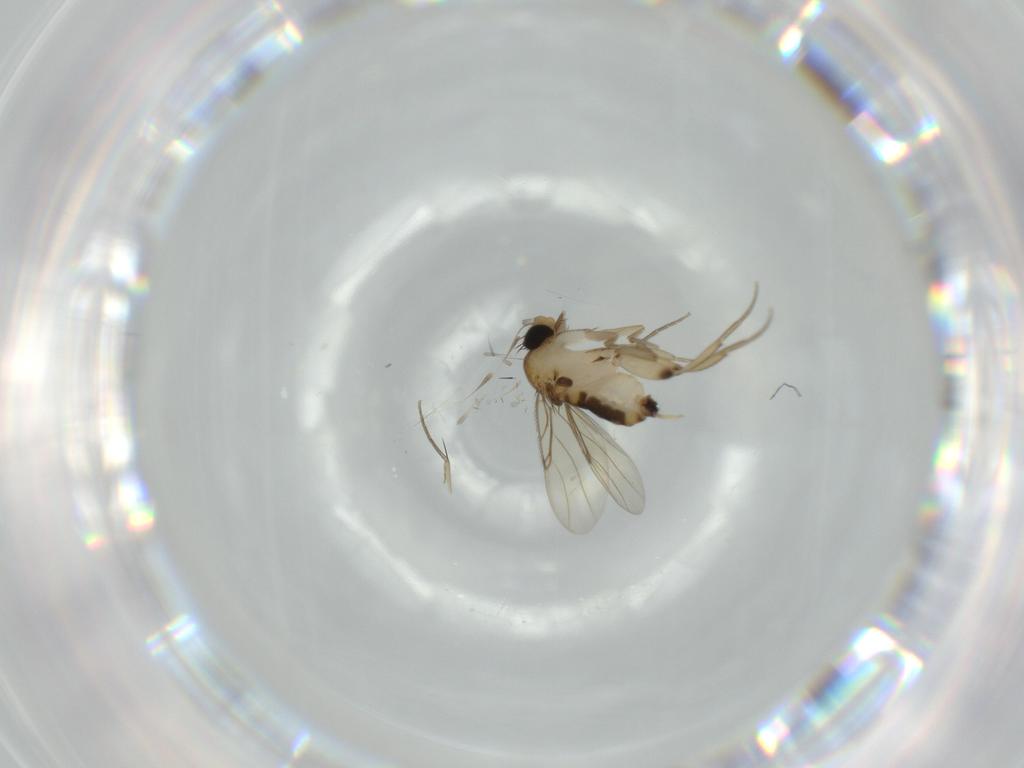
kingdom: Animalia
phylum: Arthropoda
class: Insecta
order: Diptera
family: Phoridae
